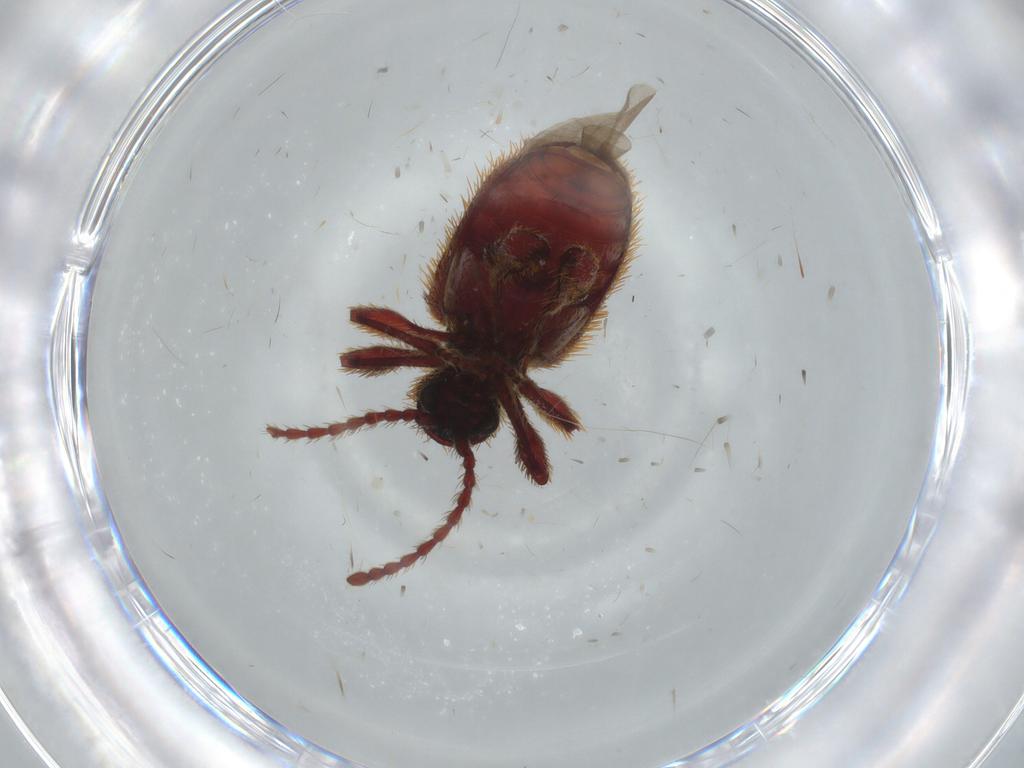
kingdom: Animalia
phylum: Arthropoda
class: Insecta
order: Coleoptera
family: Ptinidae
